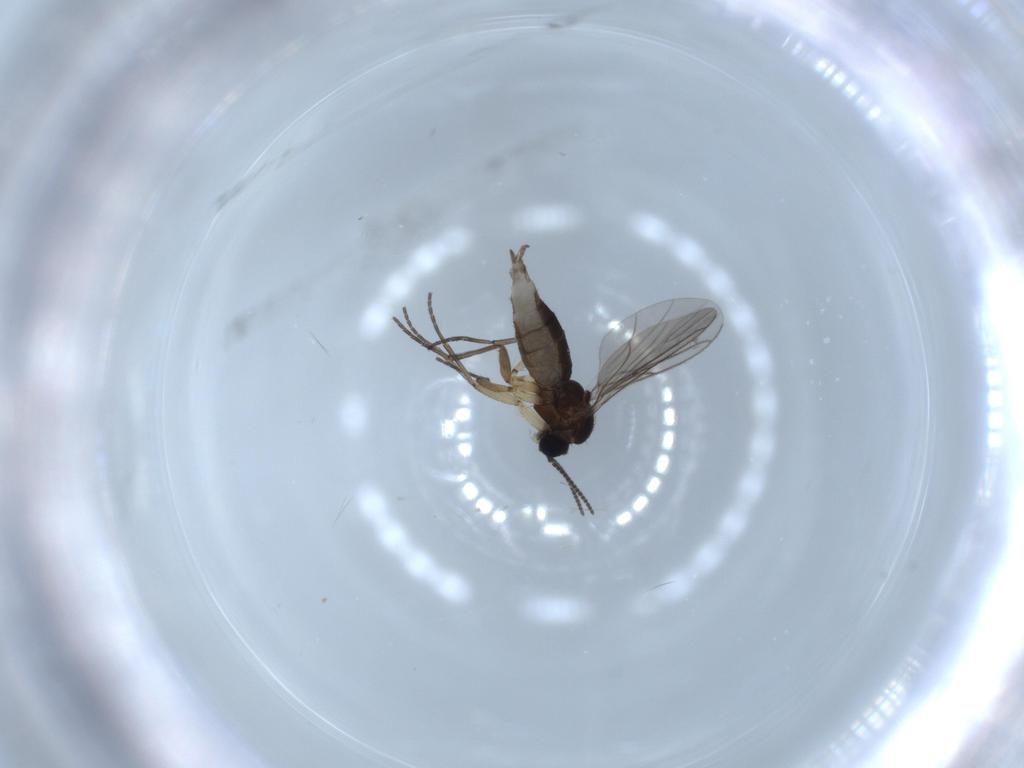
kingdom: Animalia
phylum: Arthropoda
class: Insecta
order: Diptera
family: Sciaridae
